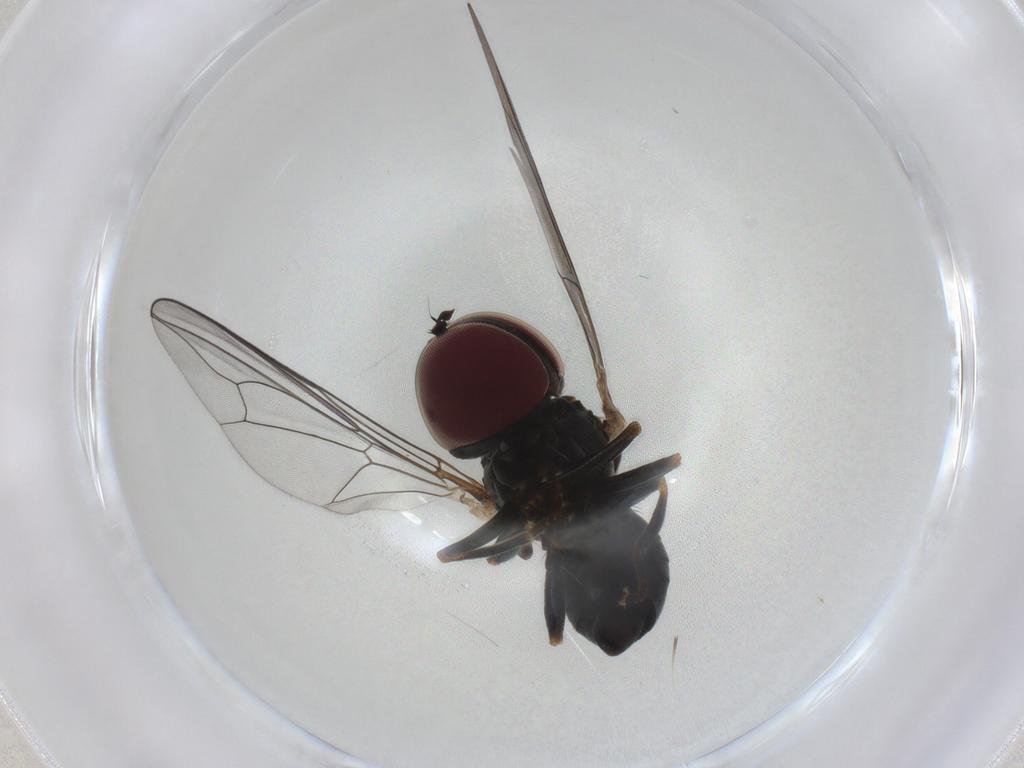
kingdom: Animalia
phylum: Arthropoda
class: Insecta
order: Diptera
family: Pipunculidae
